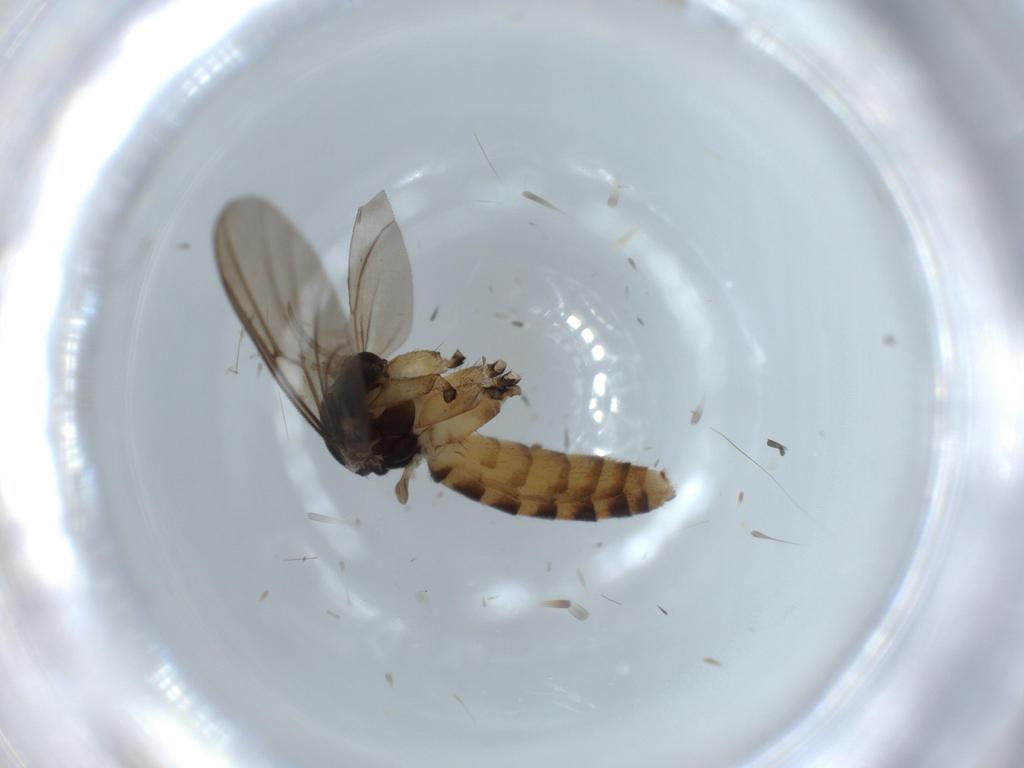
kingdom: Animalia
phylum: Arthropoda
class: Insecta
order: Diptera
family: Mycetophilidae
